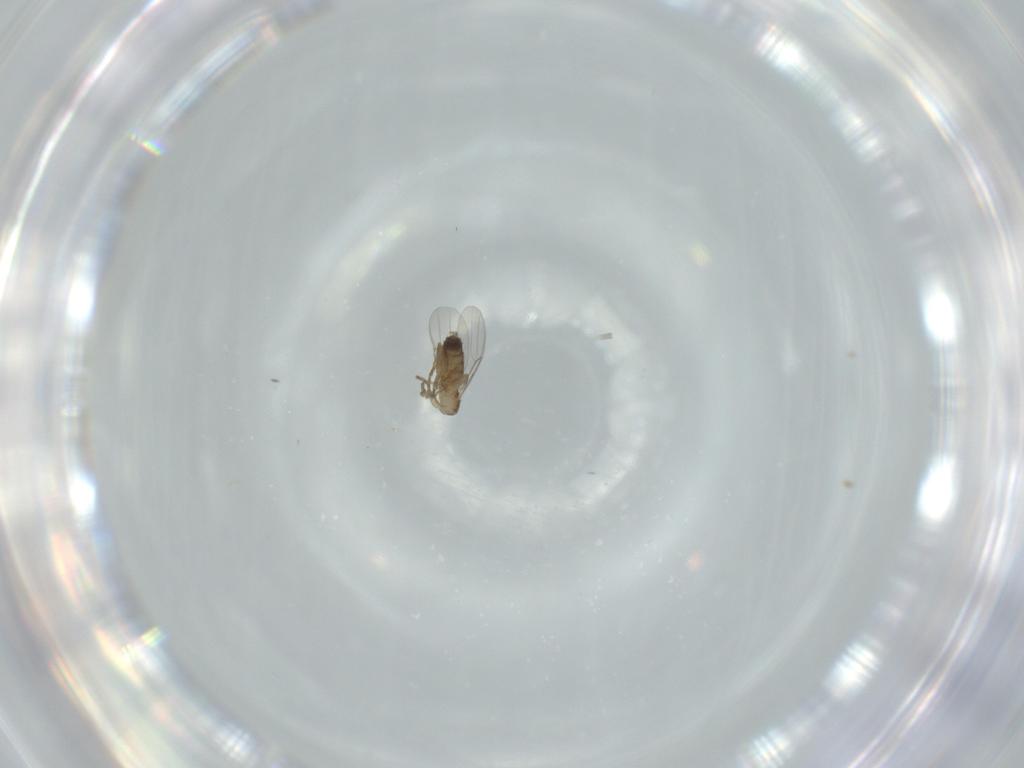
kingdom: Animalia
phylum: Arthropoda
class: Insecta
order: Diptera
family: Phoridae
